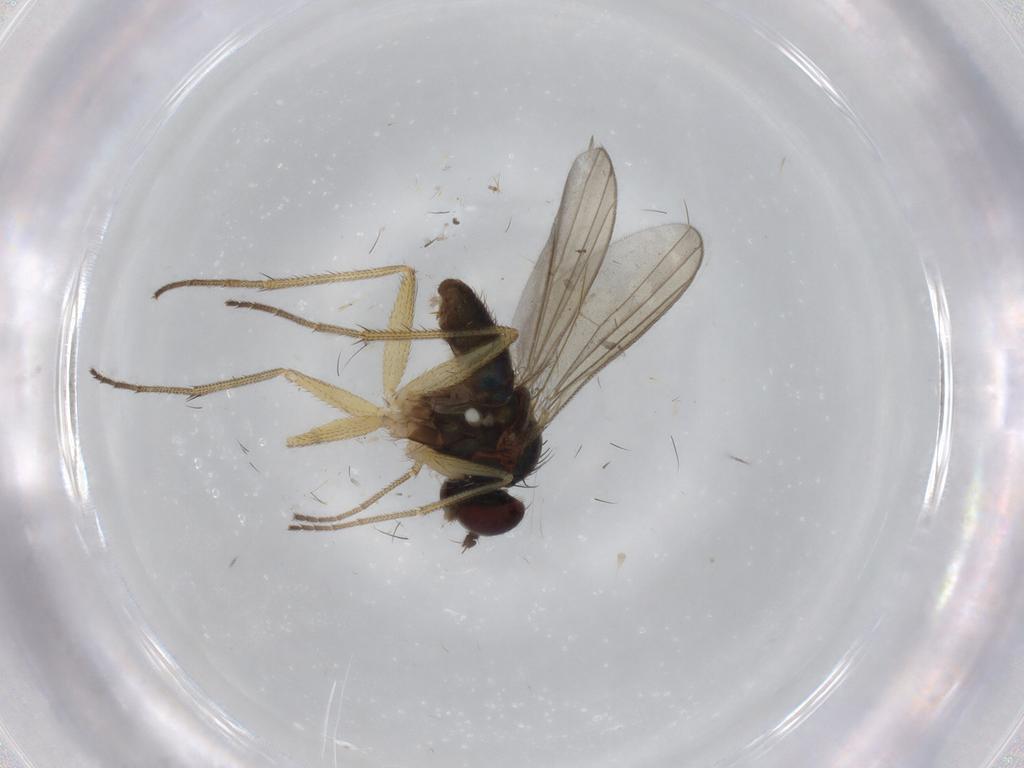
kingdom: Animalia
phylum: Arthropoda
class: Insecta
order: Diptera
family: Dolichopodidae
